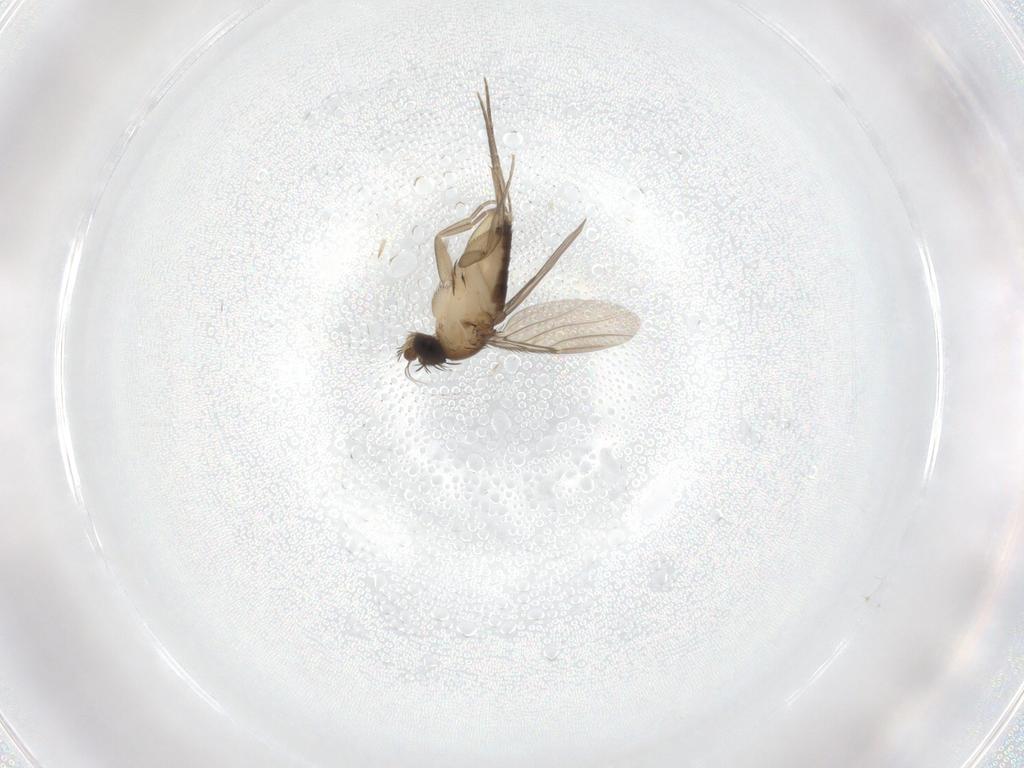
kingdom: Animalia
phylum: Arthropoda
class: Insecta
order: Diptera
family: Phoridae
